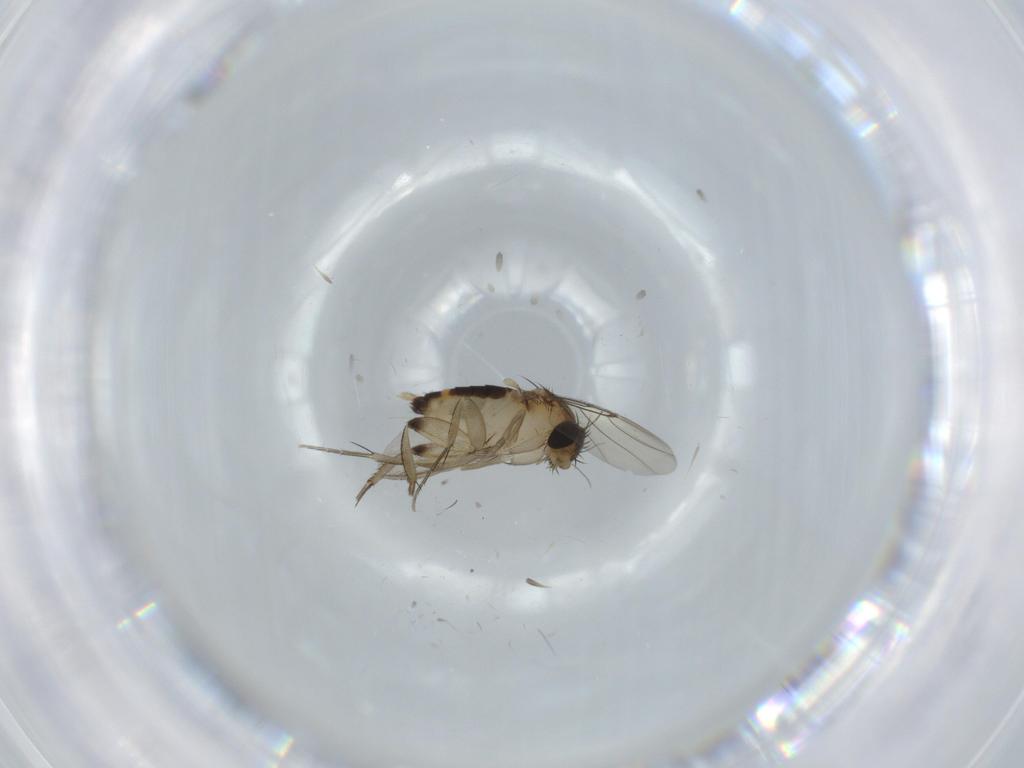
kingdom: Animalia
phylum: Arthropoda
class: Insecta
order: Diptera
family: Phoridae
